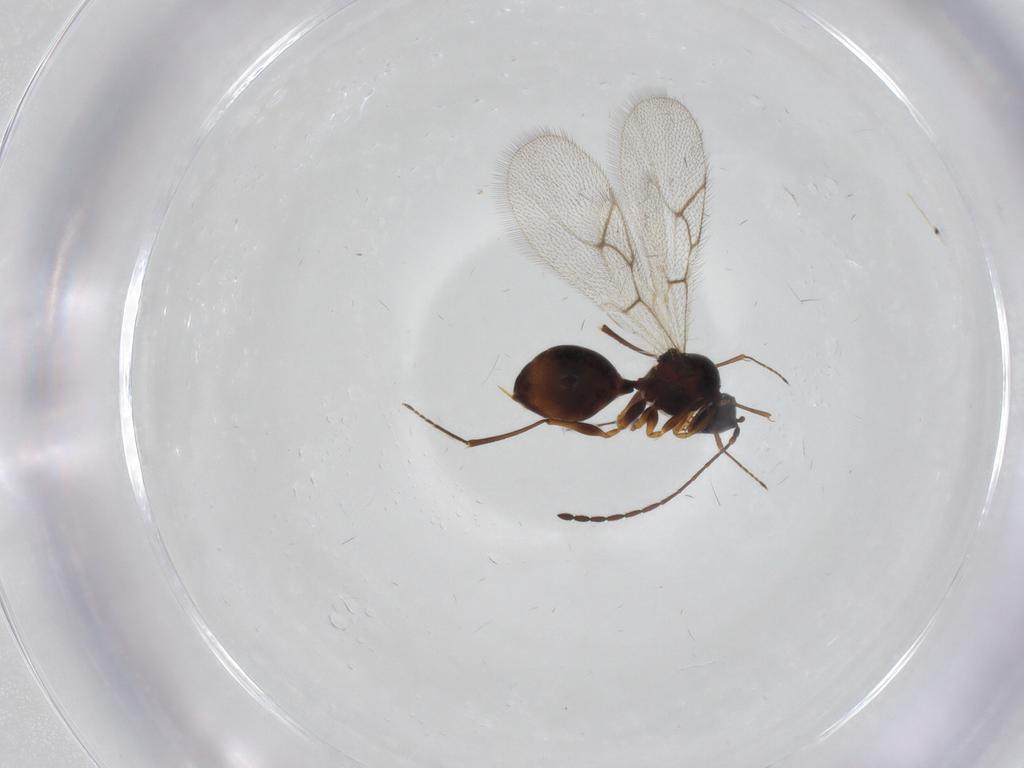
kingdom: Animalia
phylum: Arthropoda
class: Insecta
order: Hymenoptera
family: Figitidae
